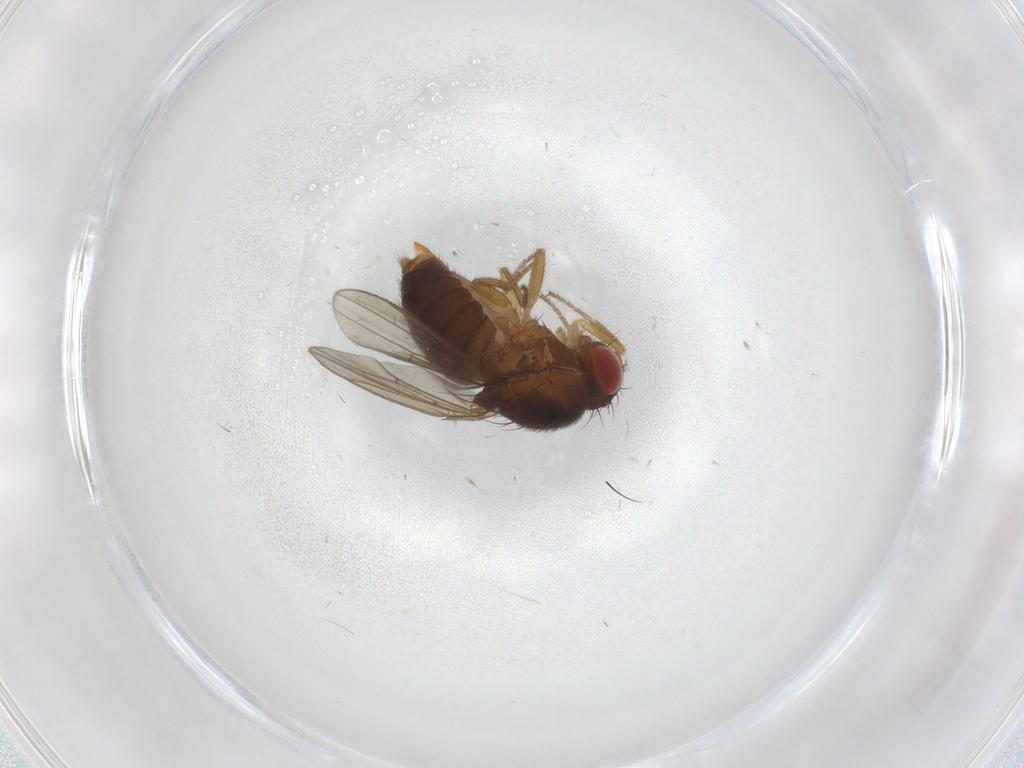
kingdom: Animalia
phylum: Arthropoda
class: Insecta
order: Diptera
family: Drosophilidae
